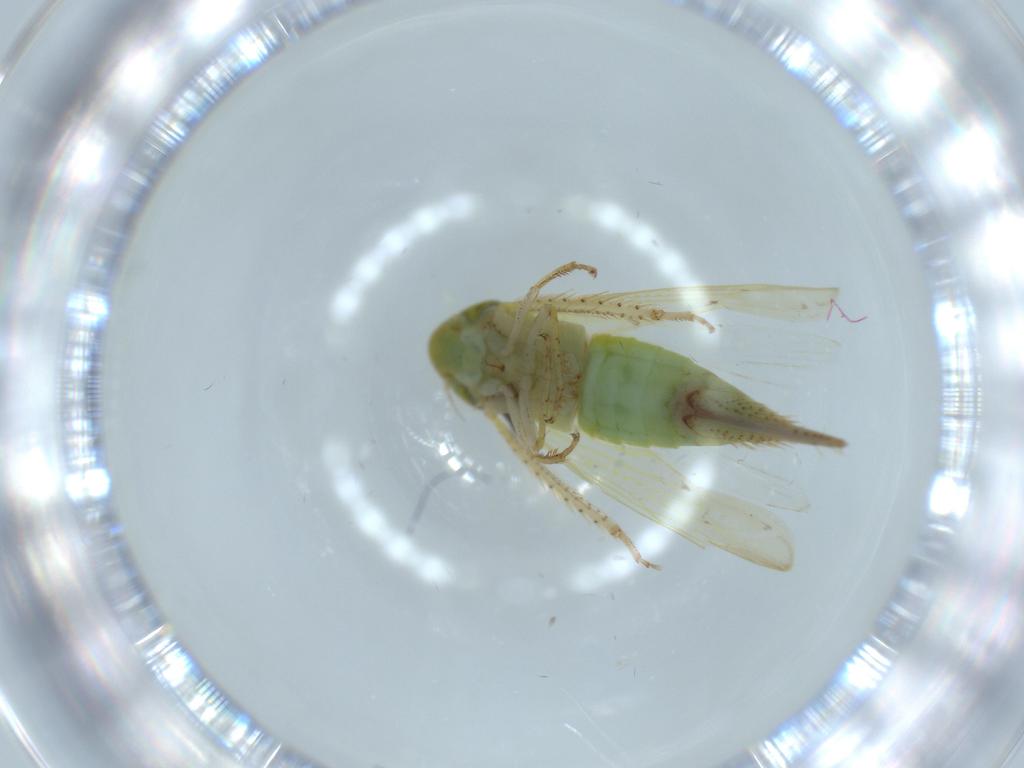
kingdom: Animalia
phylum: Arthropoda
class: Insecta
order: Hemiptera
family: Cicadellidae
